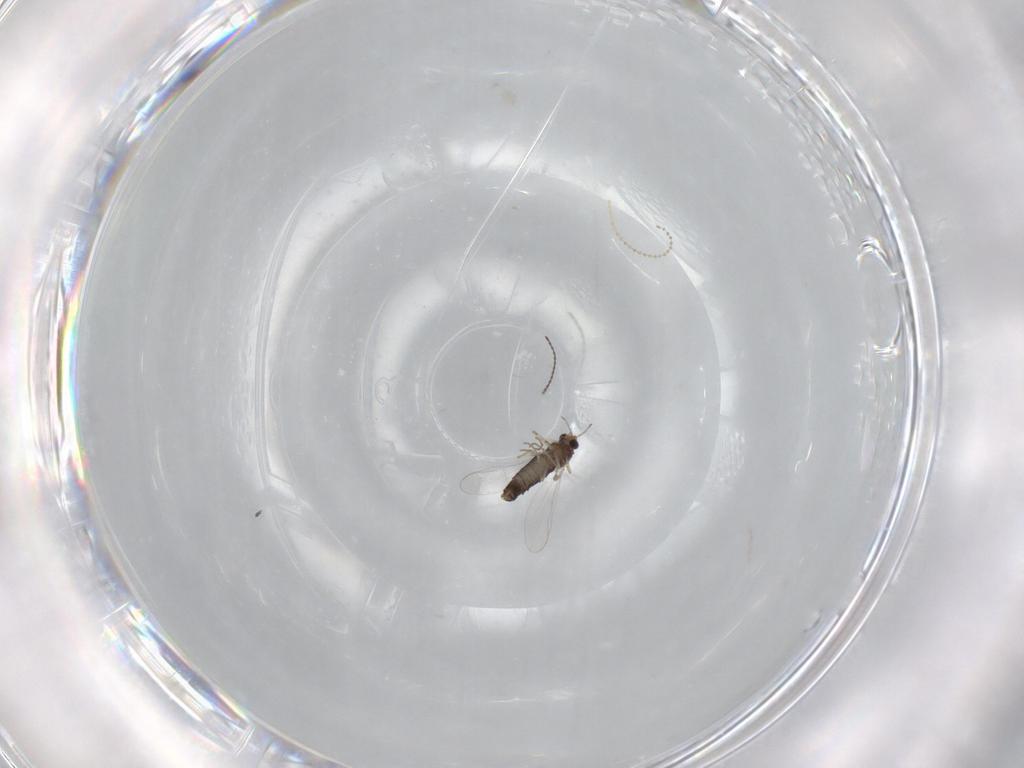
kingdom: Animalia
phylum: Arthropoda
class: Insecta
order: Diptera
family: Chironomidae
